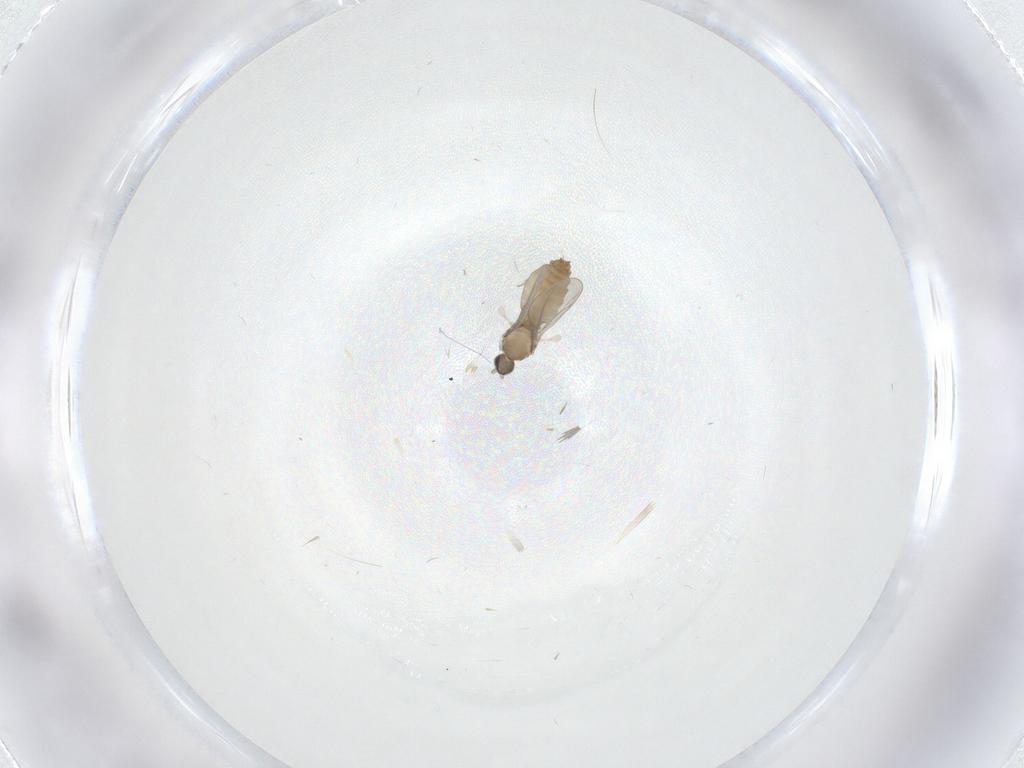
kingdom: Animalia
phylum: Arthropoda
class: Insecta
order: Diptera
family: Cecidomyiidae
